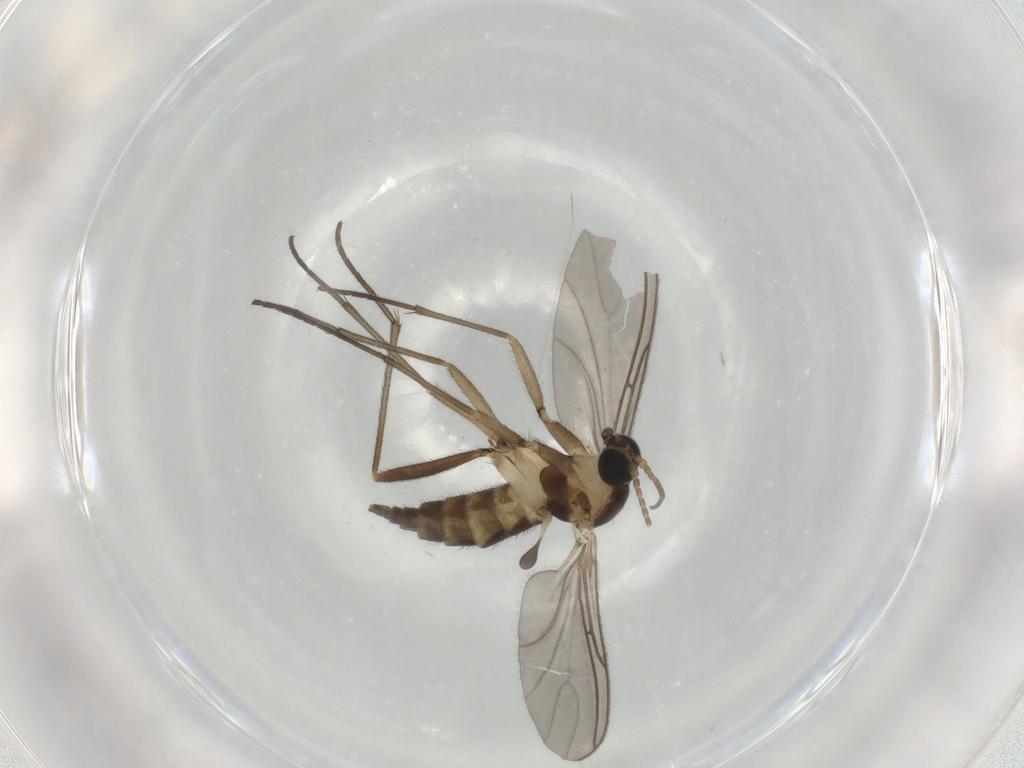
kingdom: Animalia
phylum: Arthropoda
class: Insecta
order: Diptera
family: Sciaridae
